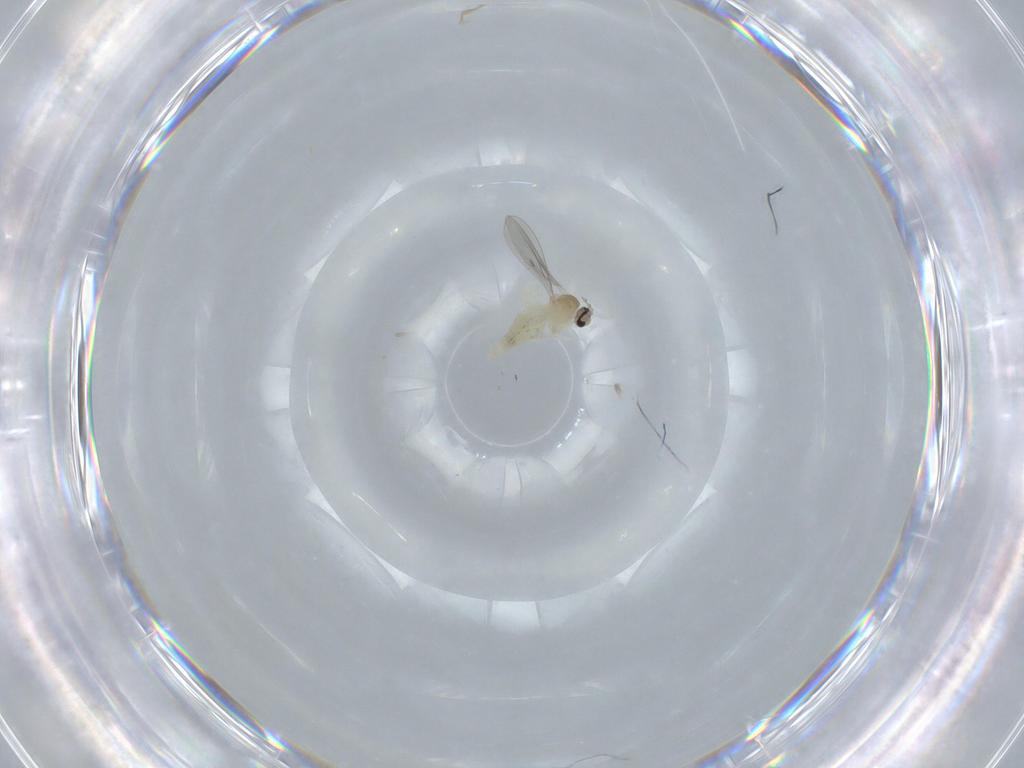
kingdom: Animalia
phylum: Arthropoda
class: Insecta
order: Diptera
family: Cecidomyiidae
